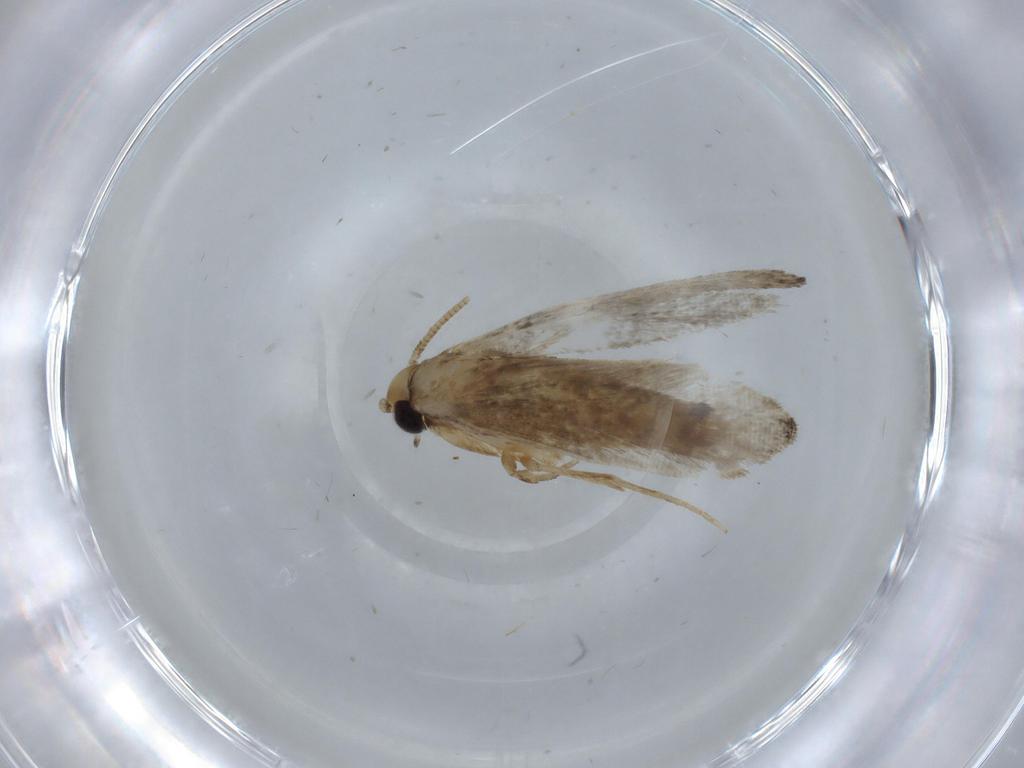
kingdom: Animalia
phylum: Arthropoda
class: Insecta
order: Lepidoptera
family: Tineidae
